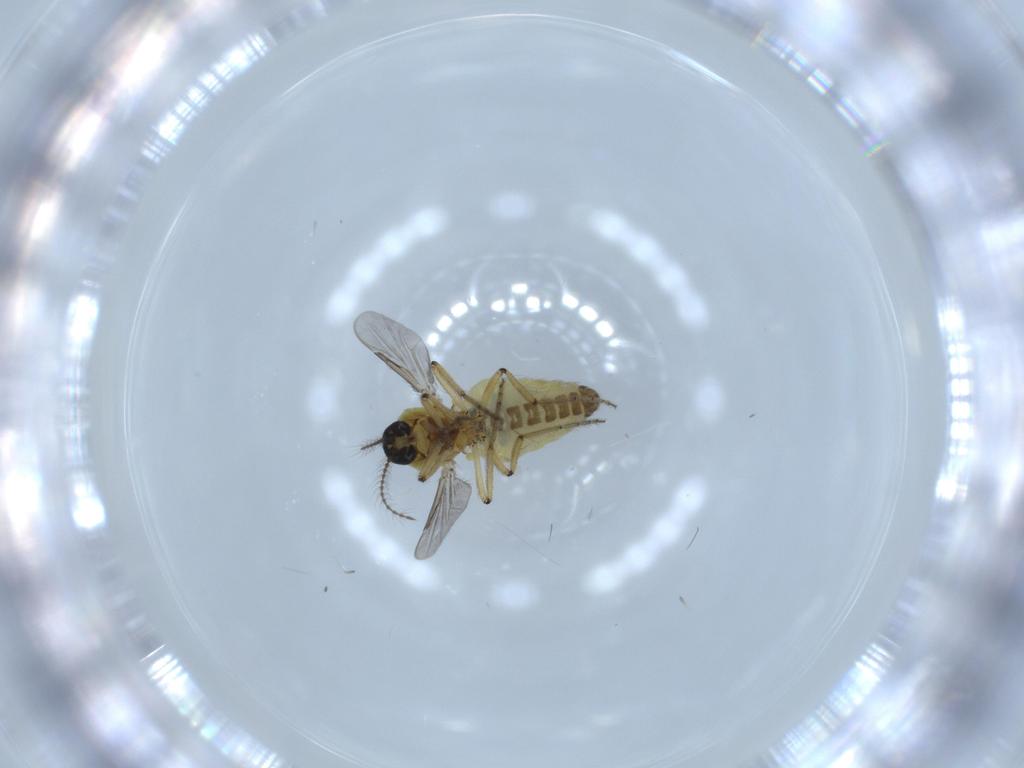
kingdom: Animalia
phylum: Arthropoda
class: Insecta
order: Diptera
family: Ceratopogonidae
